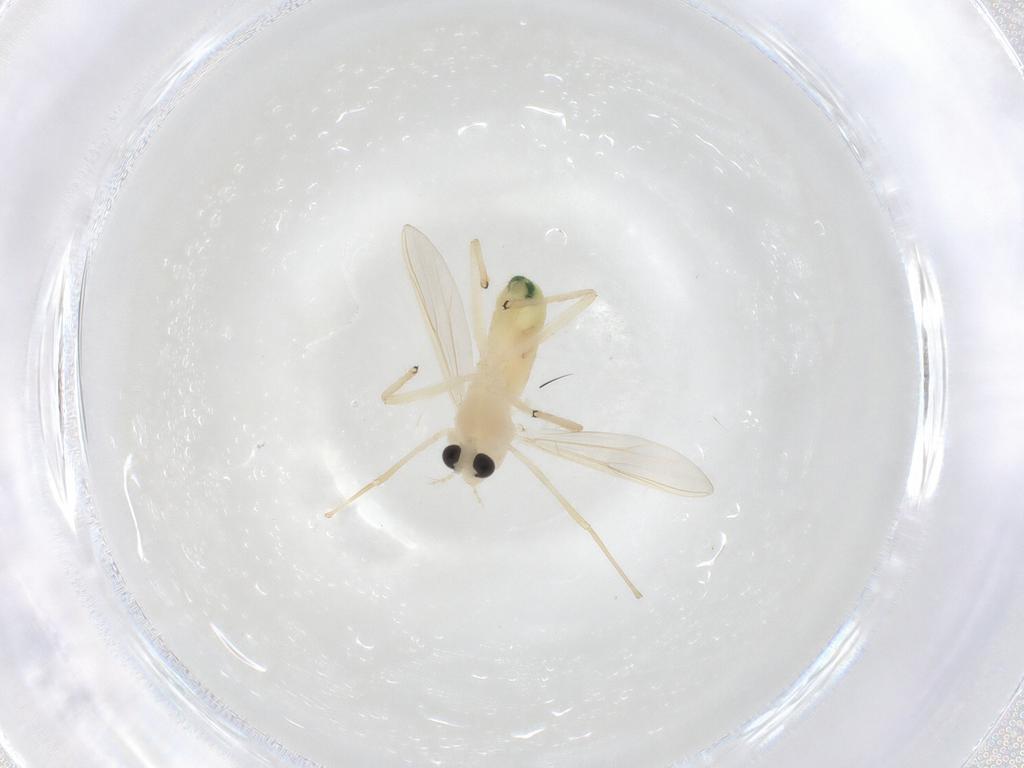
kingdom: Animalia
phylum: Arthropoda
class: Insecta
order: Diptera
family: Chironomidae
